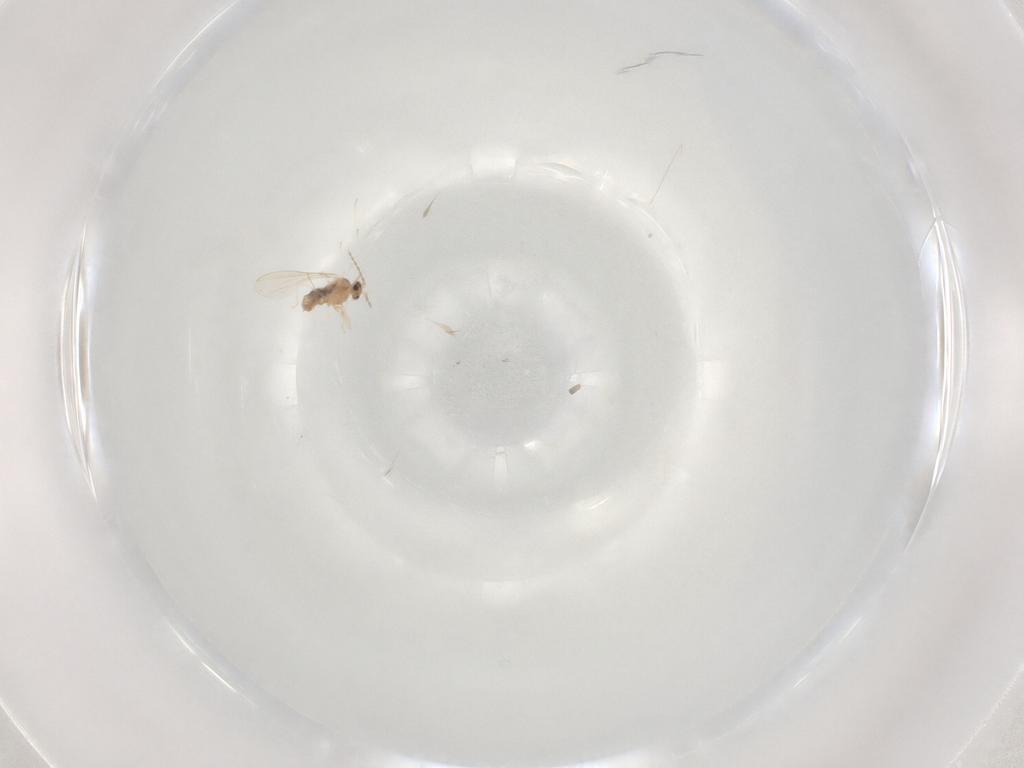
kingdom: Animalia
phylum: Arthropoda
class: Insecta
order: Diptera
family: Cecidomyiidae
